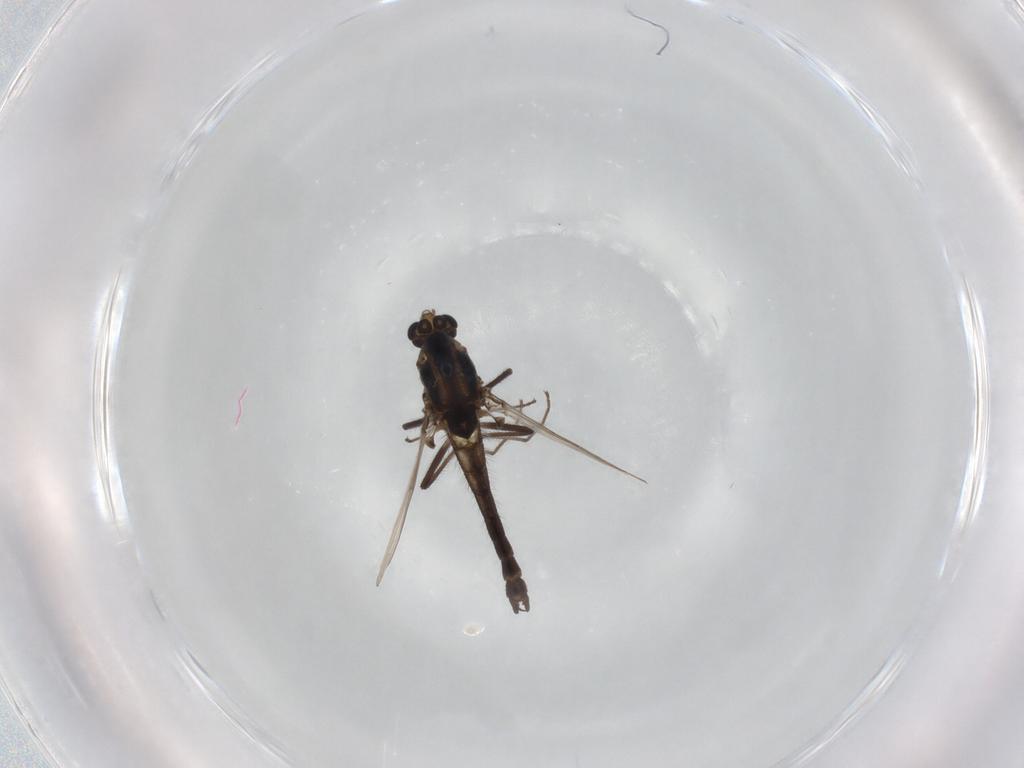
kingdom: Animalia
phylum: Arthropoda
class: Insecta
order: Diptera
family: Chironomidae
